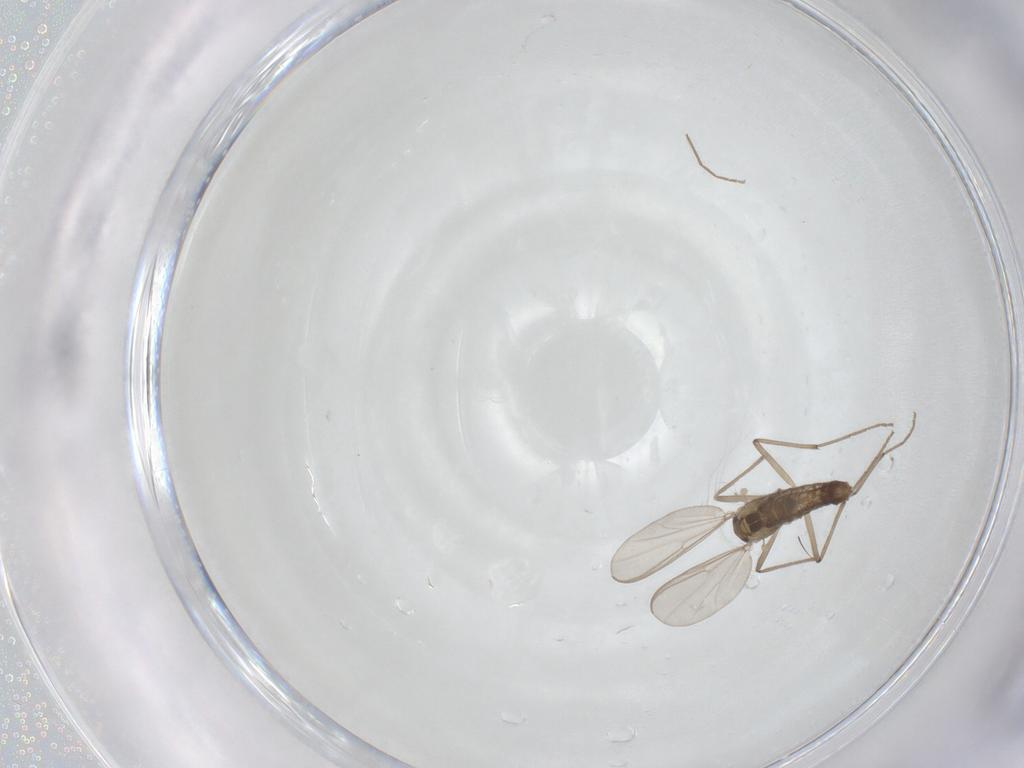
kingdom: Animalia
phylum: Arthropoda
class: Insecta
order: Diptera
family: Chironomidae
